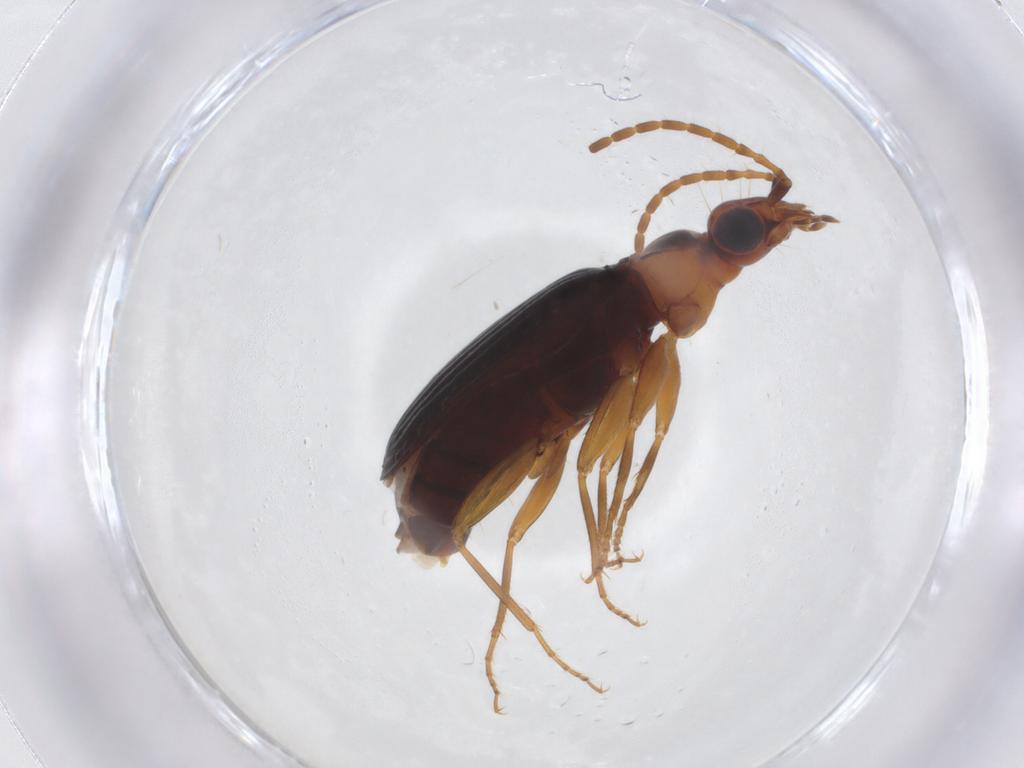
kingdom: Animalia
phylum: Arthropoda
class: Insecta
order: Coleoptera
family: Carabidae
